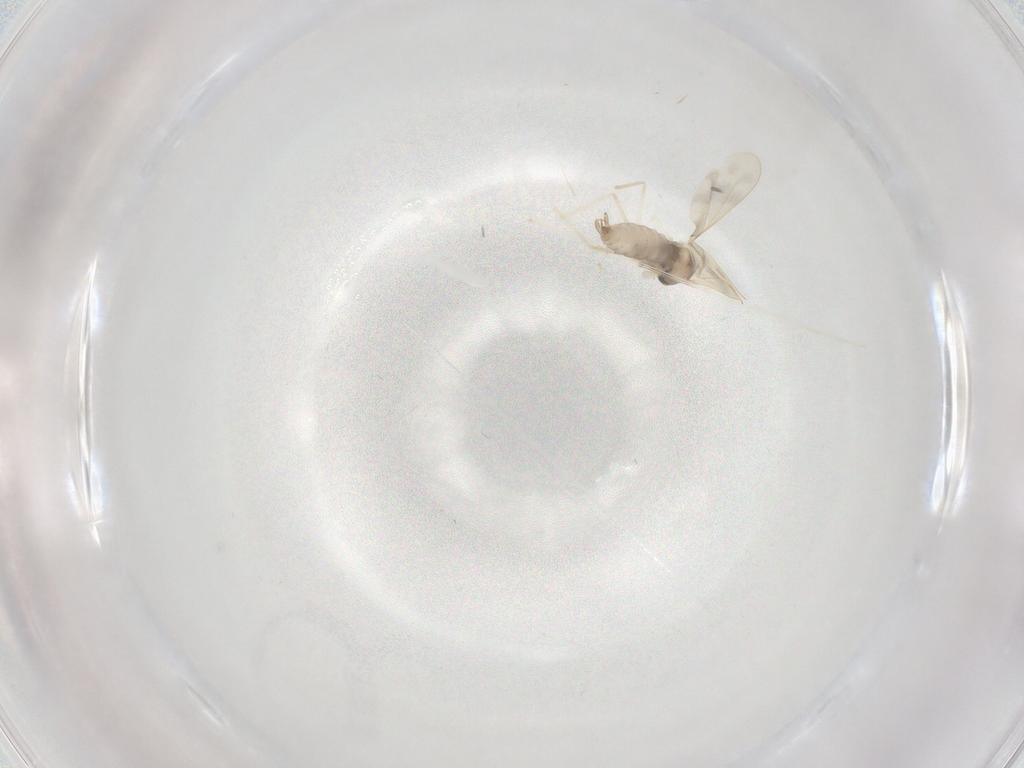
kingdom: Animalia
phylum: Arthropoda
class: Insecta
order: Diptera
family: Cecidomyiidae
